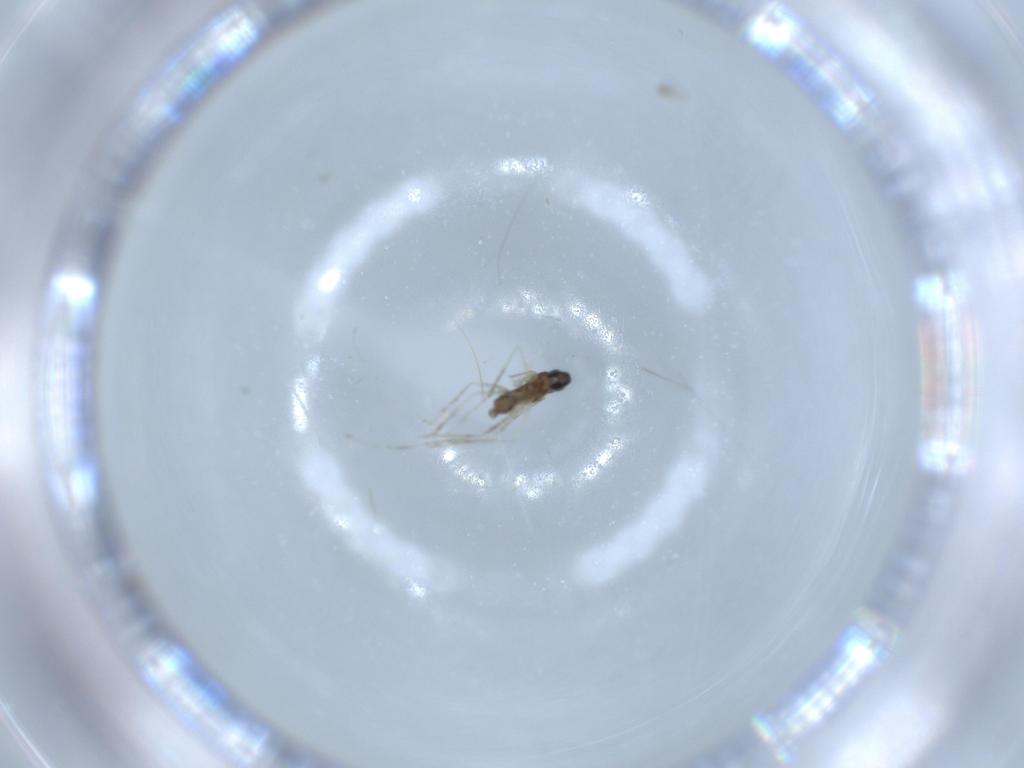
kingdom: Animalia
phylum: Arthropoda
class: Insecta
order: Diptera
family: Cecidomyiidae
